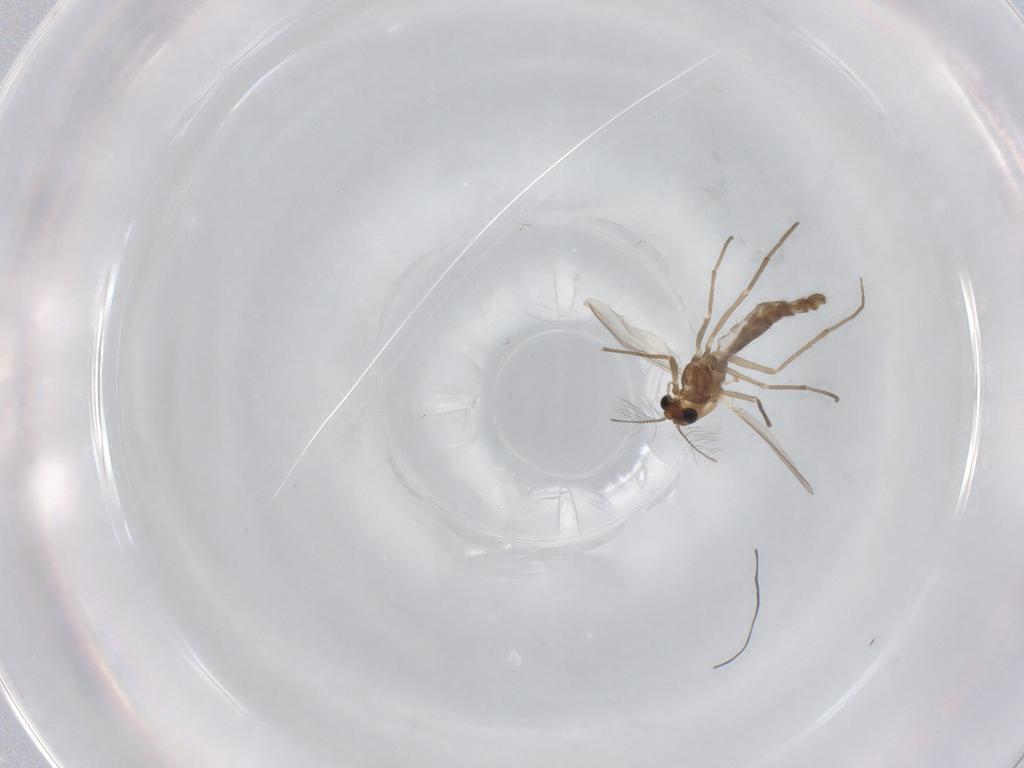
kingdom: Animalia
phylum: Arthropoda
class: Insecta
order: Diptera
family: Chironomidae
